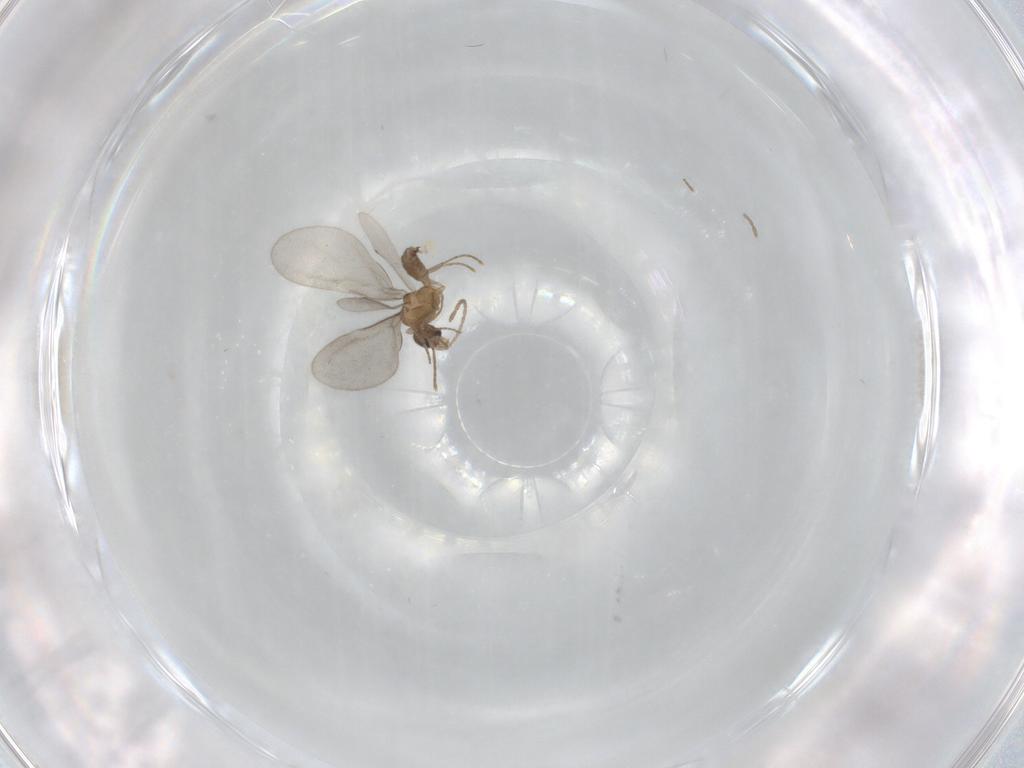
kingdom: Animalia
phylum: Arthropoda
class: Insecta
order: Hymenoptera
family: Formicidae
